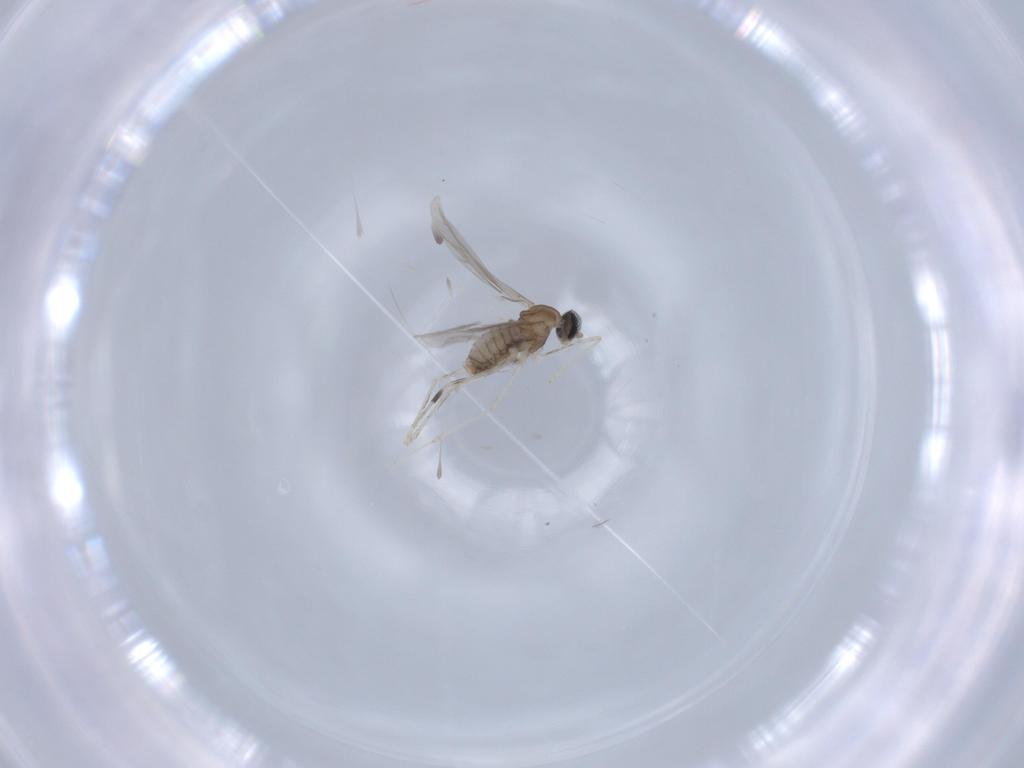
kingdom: Animalia
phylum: Arthropoda
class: Insecta
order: Diptera
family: Cecidomyiidae
